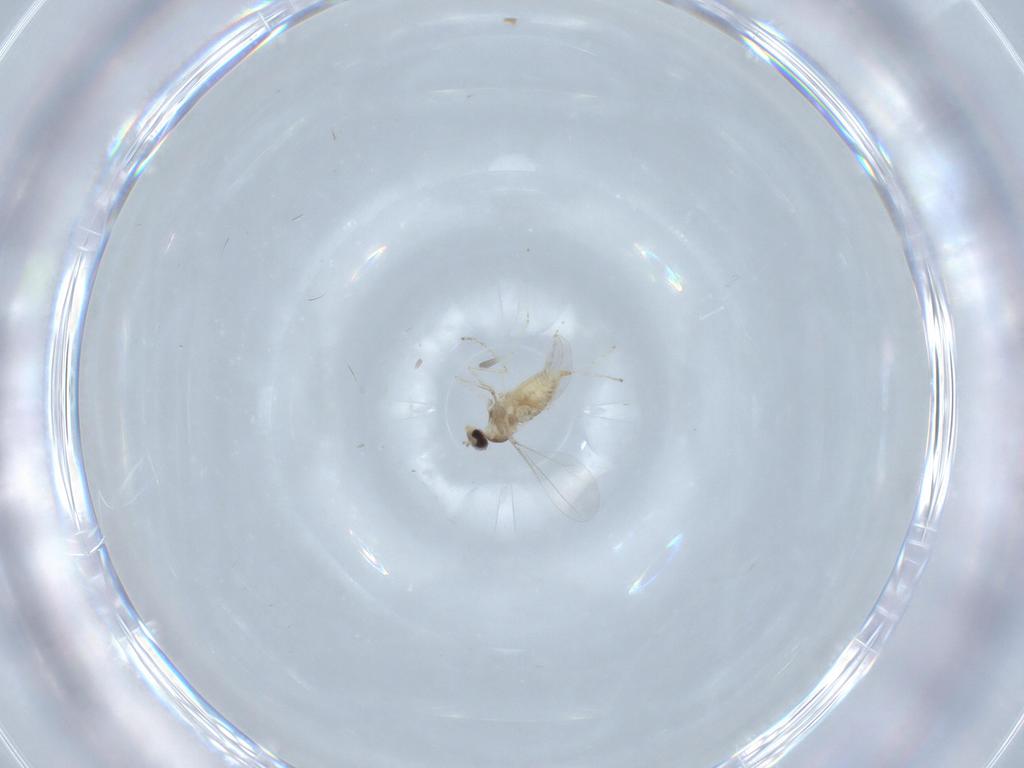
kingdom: Animalia
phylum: Arthropoda
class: Insecta
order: Diptera
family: Cecidomyiidae
